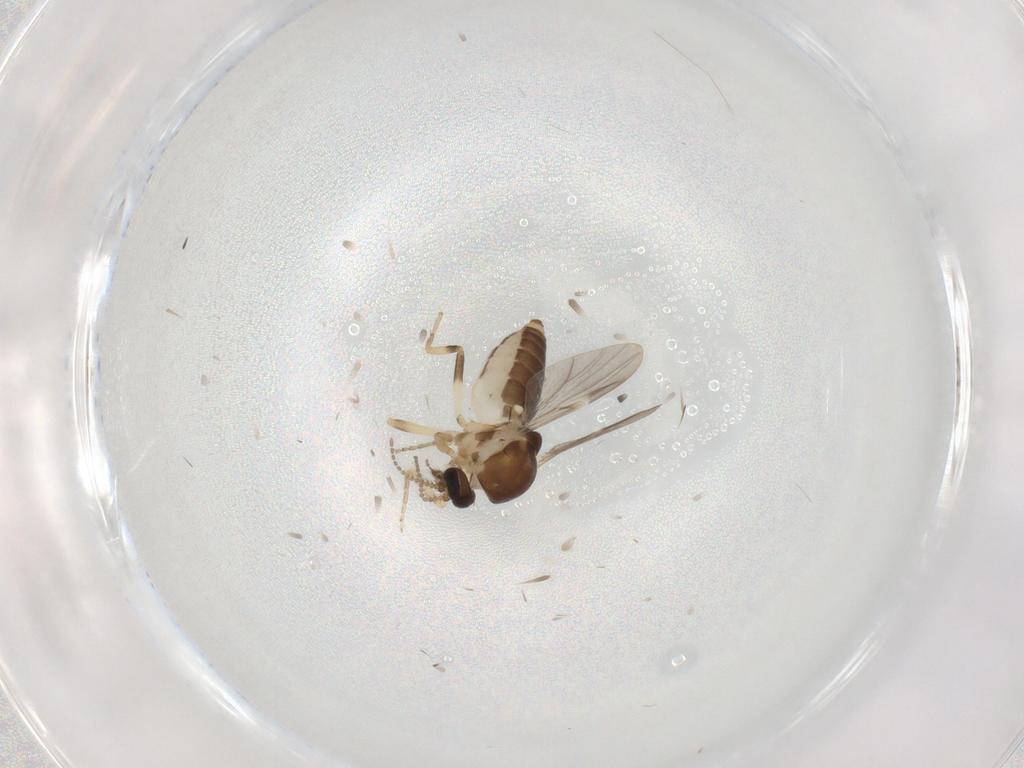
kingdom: Animalia
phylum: Arthropoda
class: Insecta
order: Diptera
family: Ceratopogonidae
